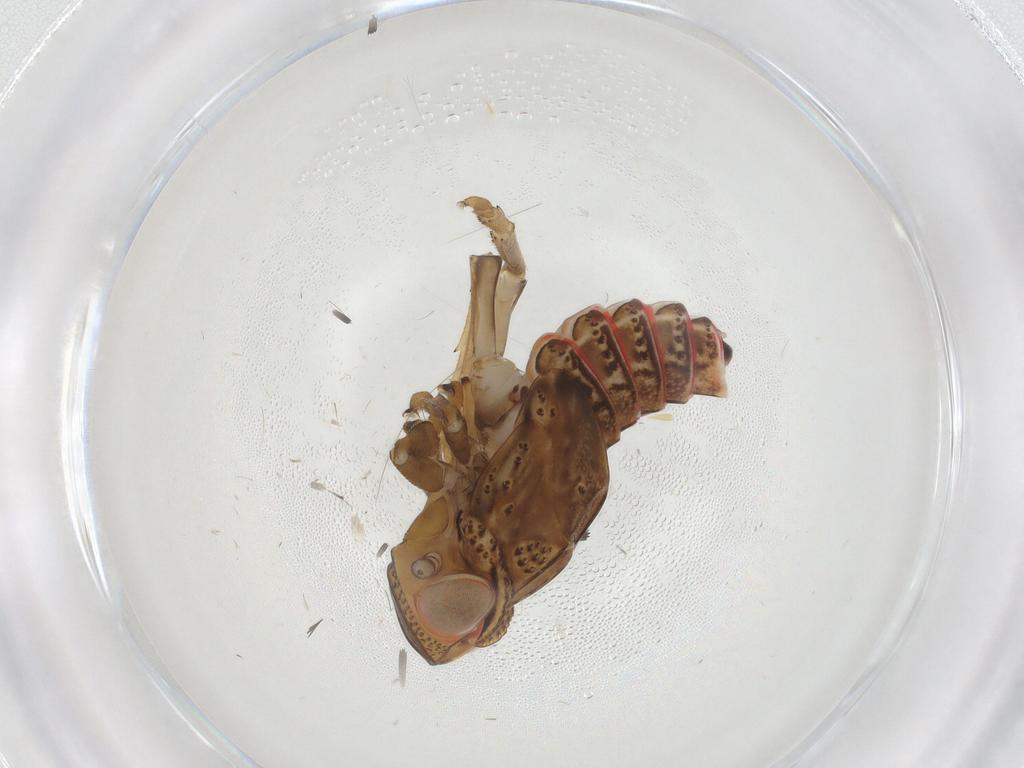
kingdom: Animalia
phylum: Arthropoda
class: Insecta
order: Hemiptera
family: Issidae
